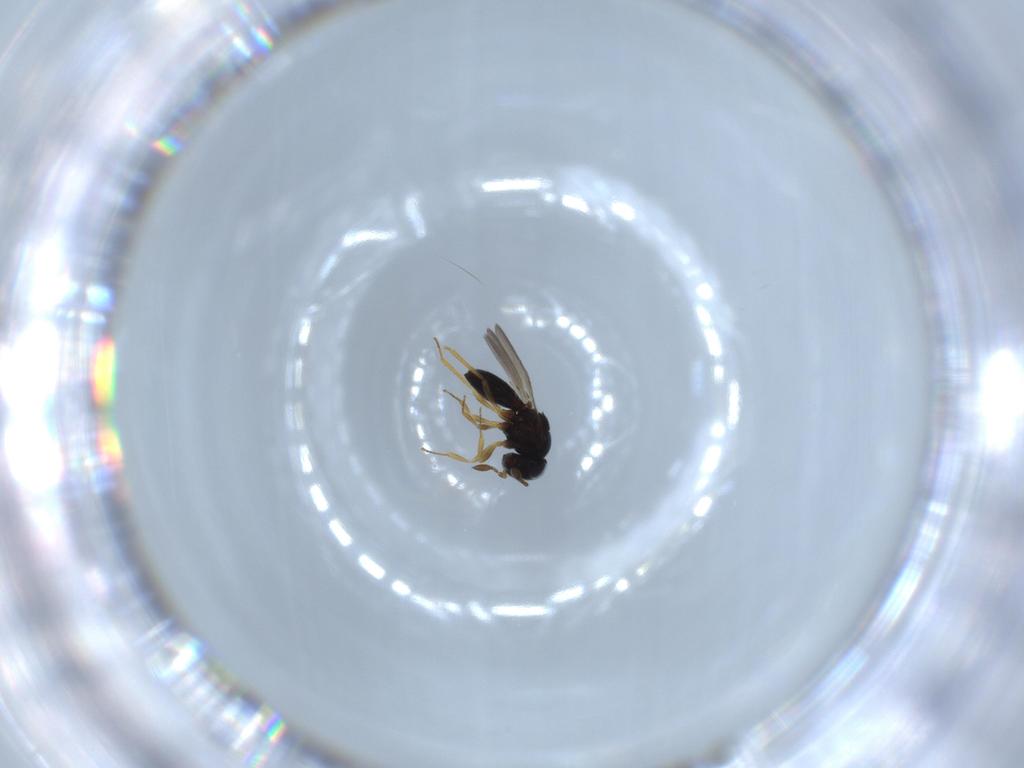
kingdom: Animalia
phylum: Arthropoda
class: Insecta
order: Hymenoptera
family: Scelionidae
